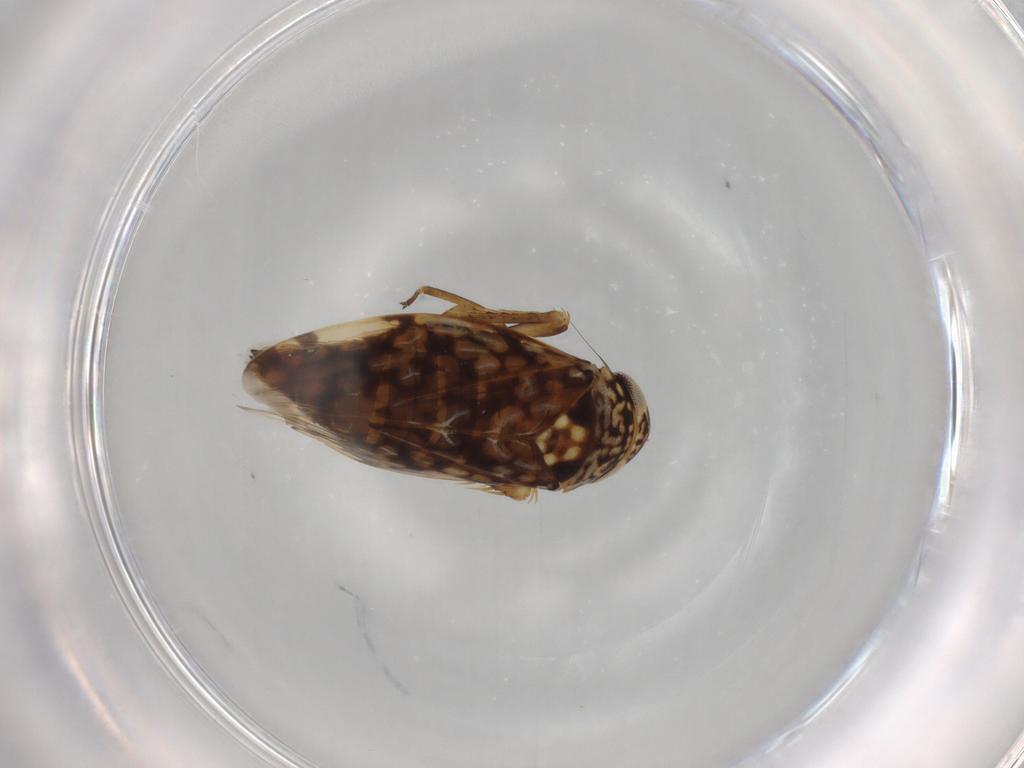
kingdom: Animalia
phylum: Arthropoda
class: Insecta
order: Hemiptera
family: Cicadellidae
